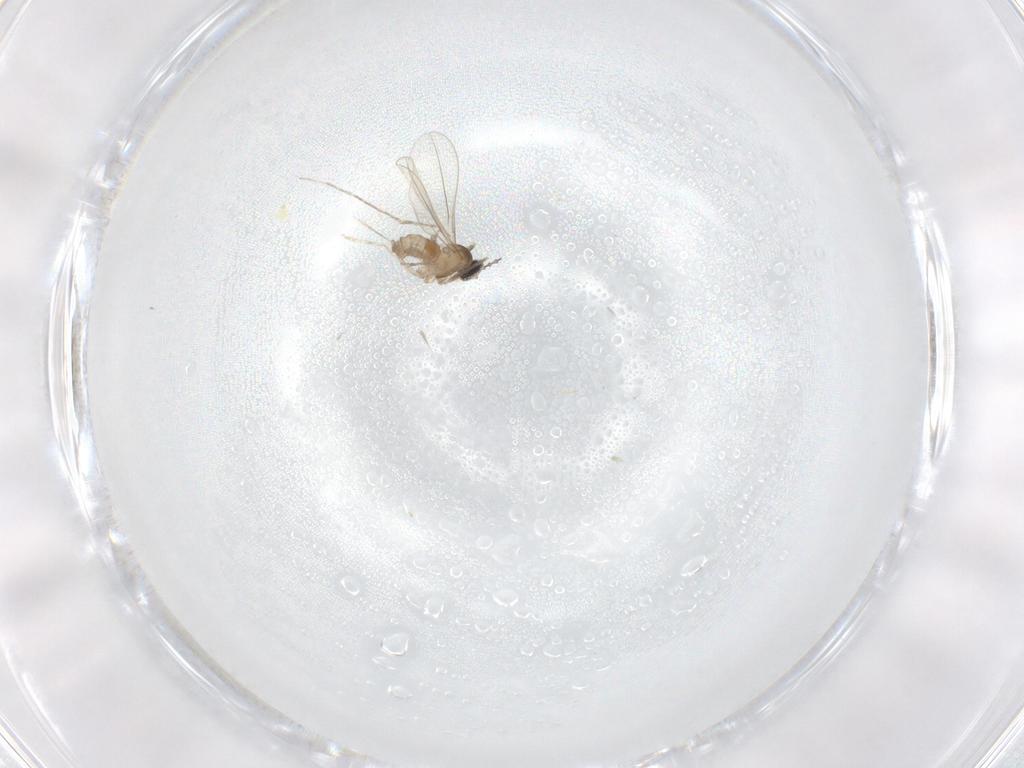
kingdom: Animalia
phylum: Arthropoda
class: Insecta
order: Diptera
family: Cecidomyiidae
